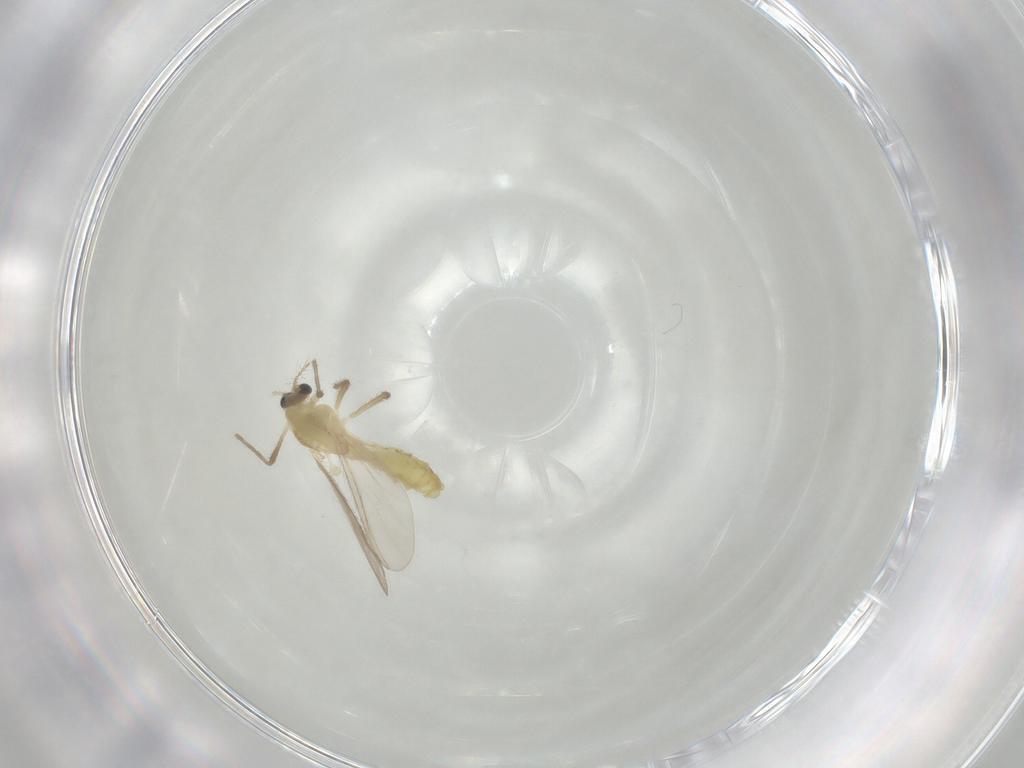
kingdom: Animalia
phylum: Arthropoda
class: Insecta
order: Diptera
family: Chironomidae
